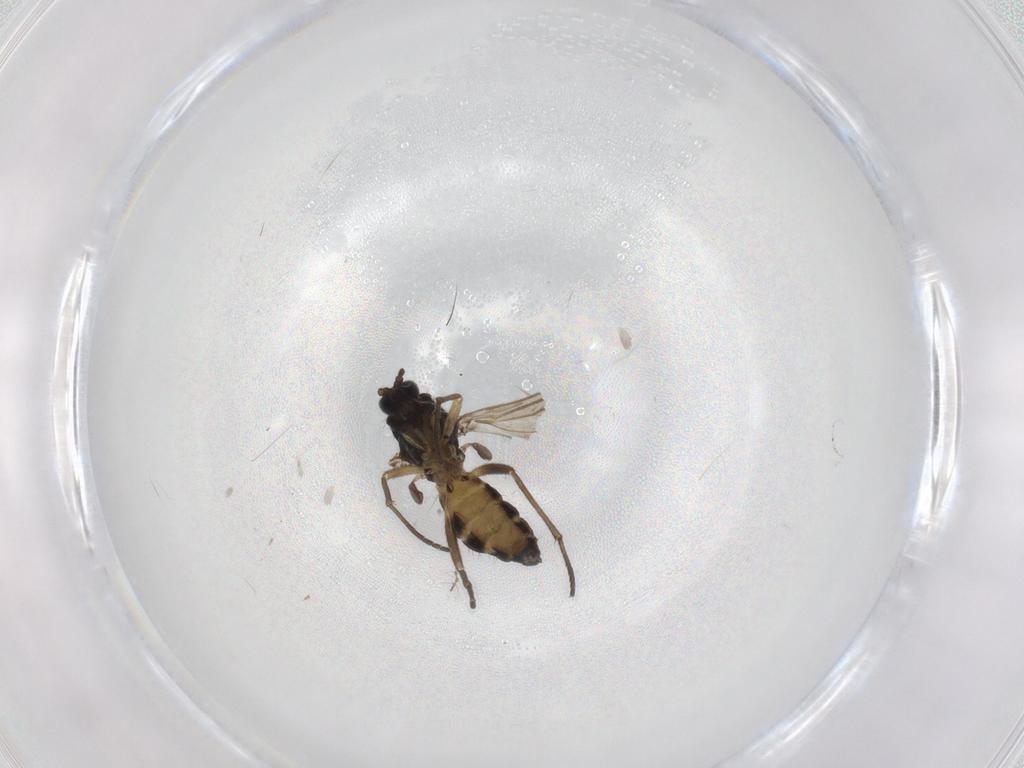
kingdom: Animalia
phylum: Arthropoda
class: Insecta
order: Diptera
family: Sciaridae
